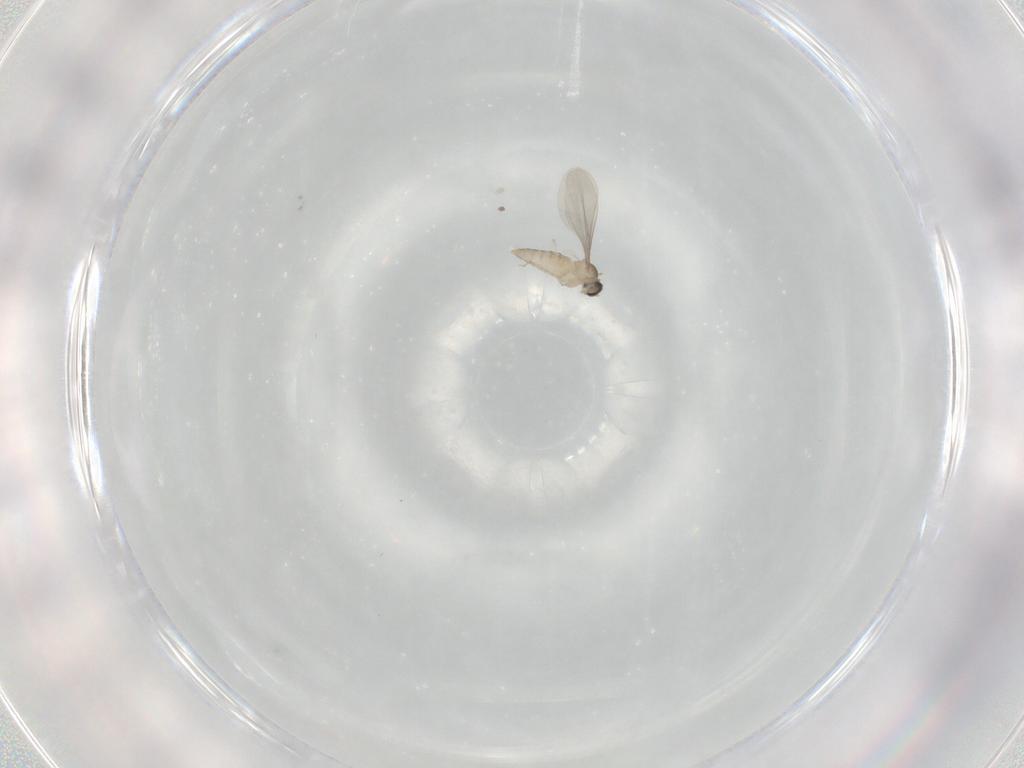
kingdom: Animalia
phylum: Arthropoda
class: Insecta
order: Diptera
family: Cecidomyiidae
